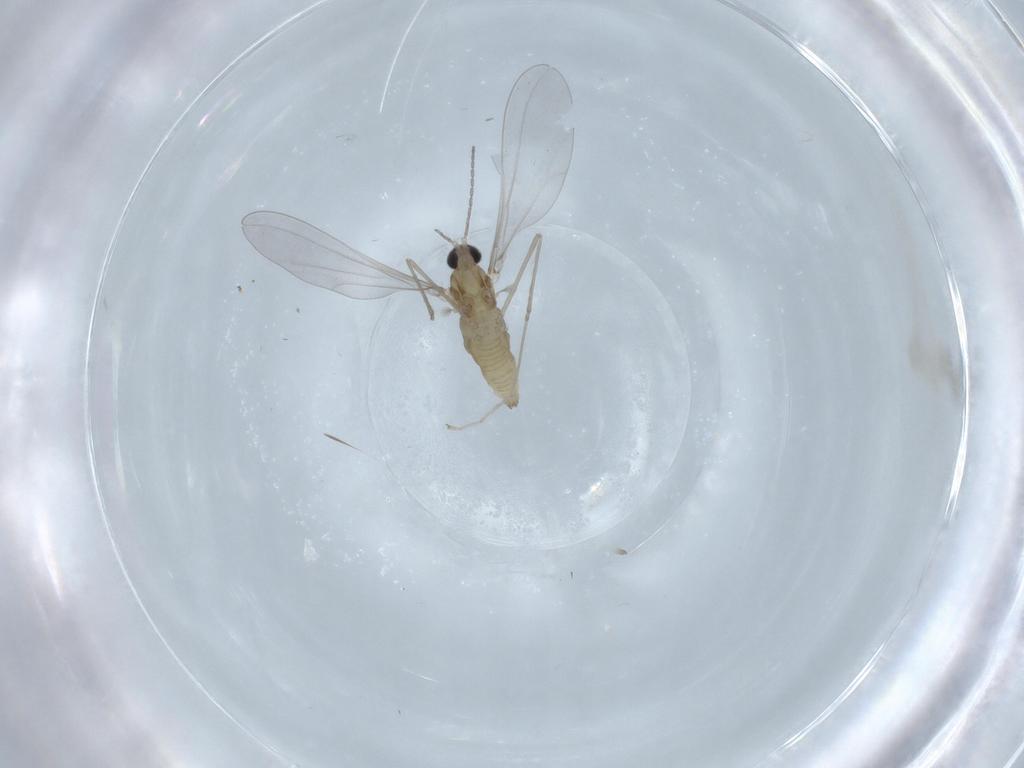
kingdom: Animalia
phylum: Arthropoda
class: Insecta
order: Diptera
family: Cecidomyiidae
